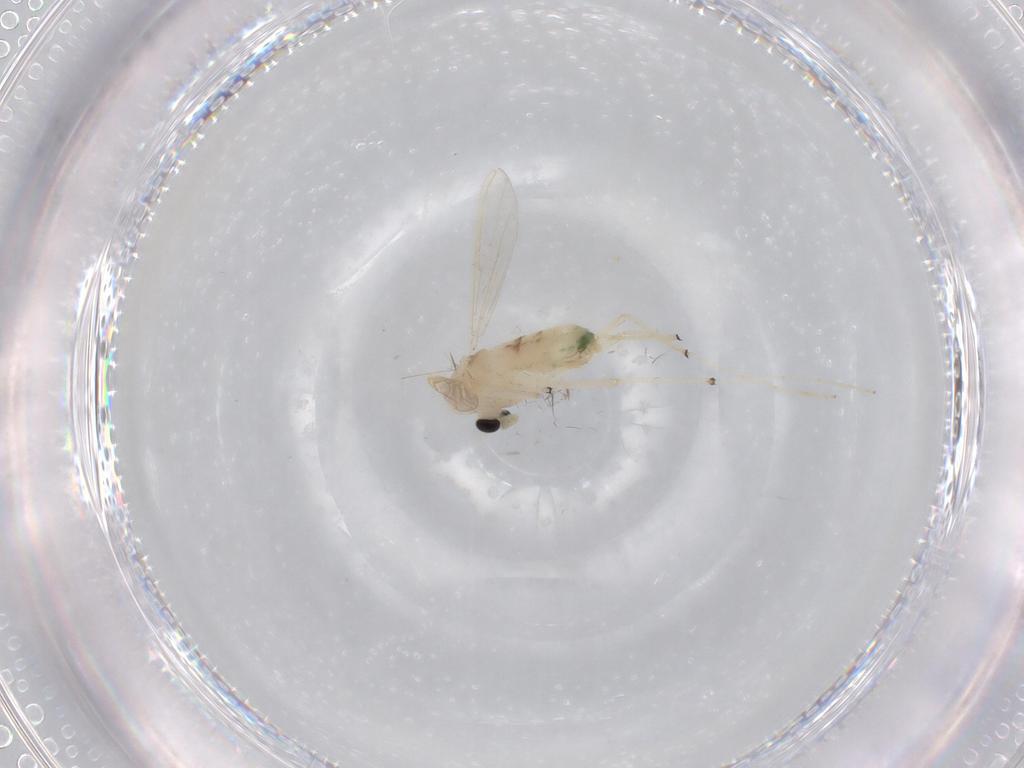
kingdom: Animalia
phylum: Arthropoda
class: Insecta
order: Diptera
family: Chironomidae
